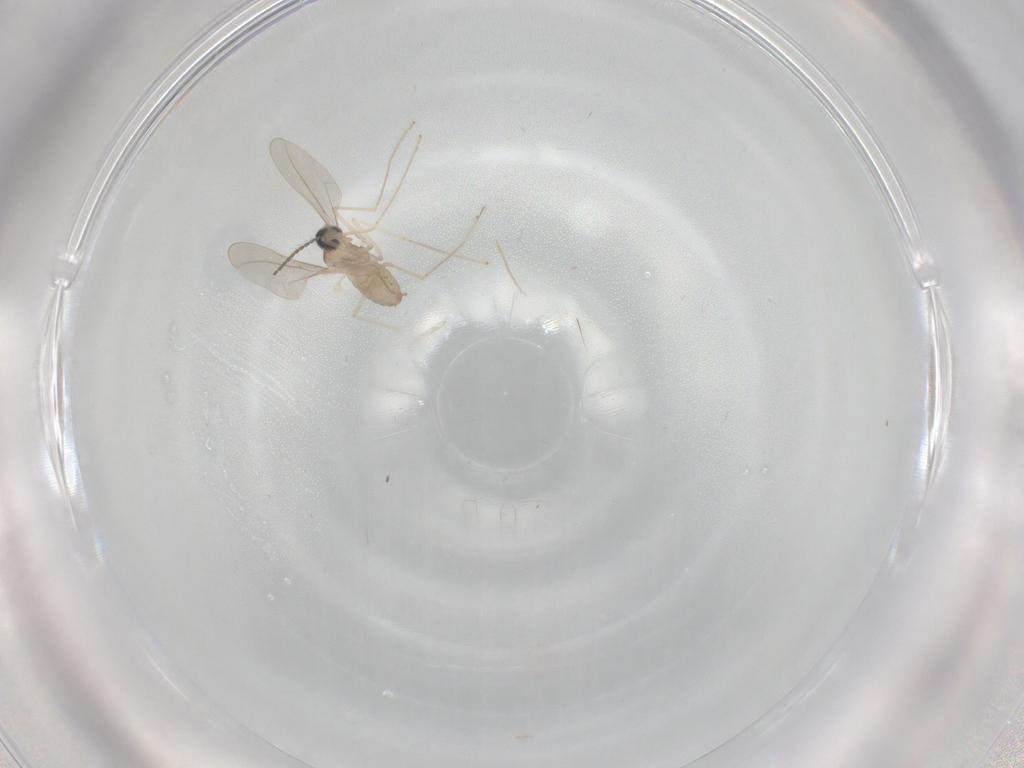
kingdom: Animalia
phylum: Arthropoda
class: Insecta
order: Diptera
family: Cecidomyiidae
